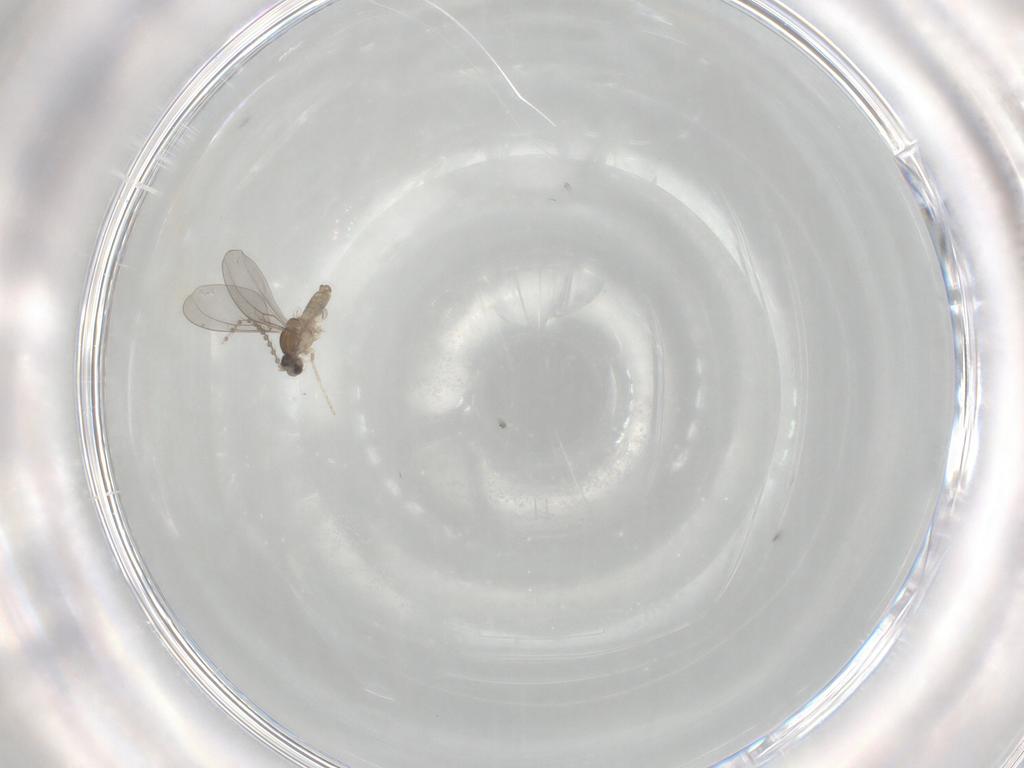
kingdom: Animalia
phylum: Arthropoda
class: Insecta
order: Diptera
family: Cecidomyiidae
